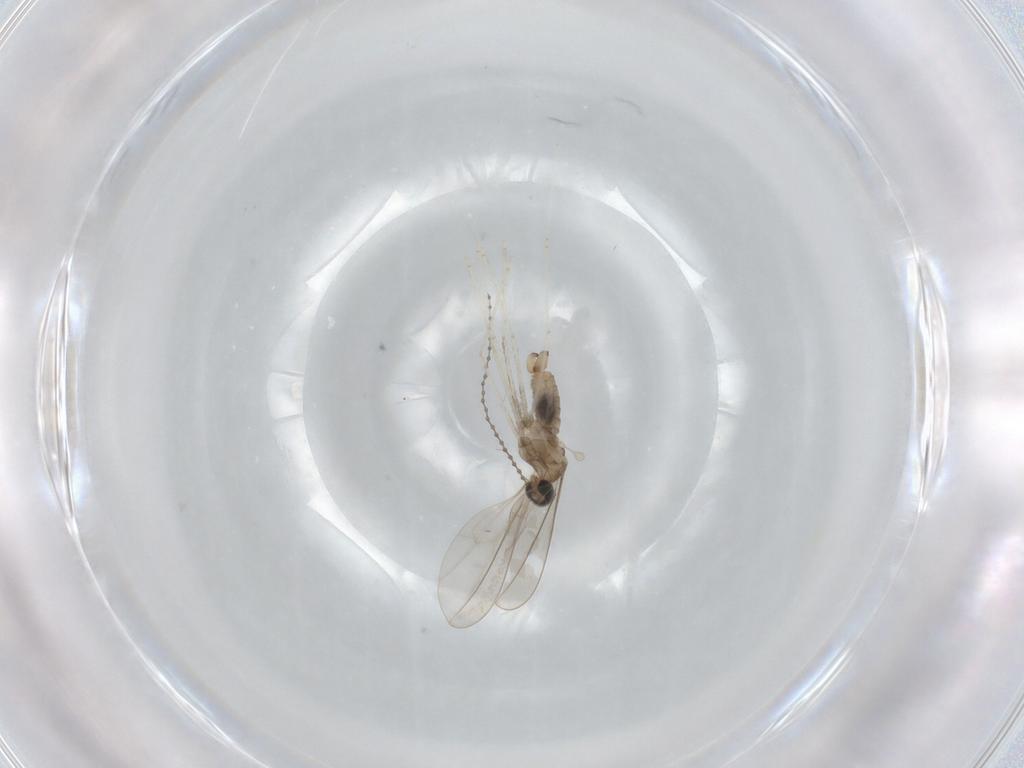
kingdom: Animalia
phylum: Arthropoda
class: Insecta
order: Diptera
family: Cecidomyiidae
